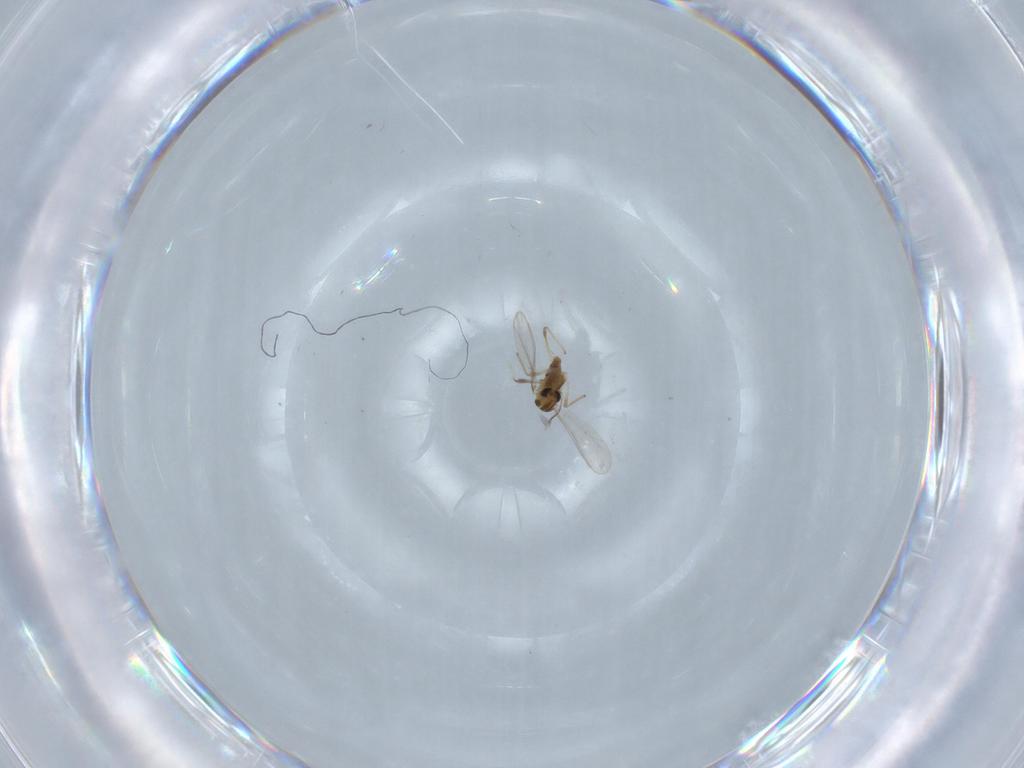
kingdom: Animalia
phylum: Arthropoda
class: Insecta
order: Diptera
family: Chironomidae
